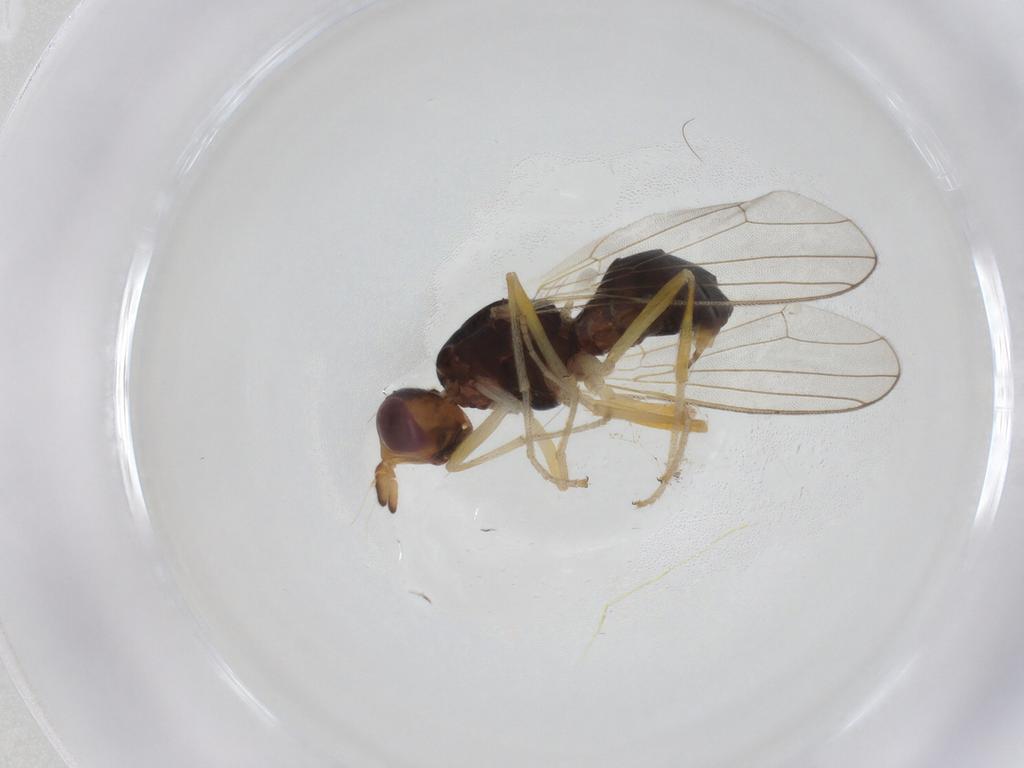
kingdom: Animalia
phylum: Arthropoda
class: Insecta
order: Diptera
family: Psilidae
